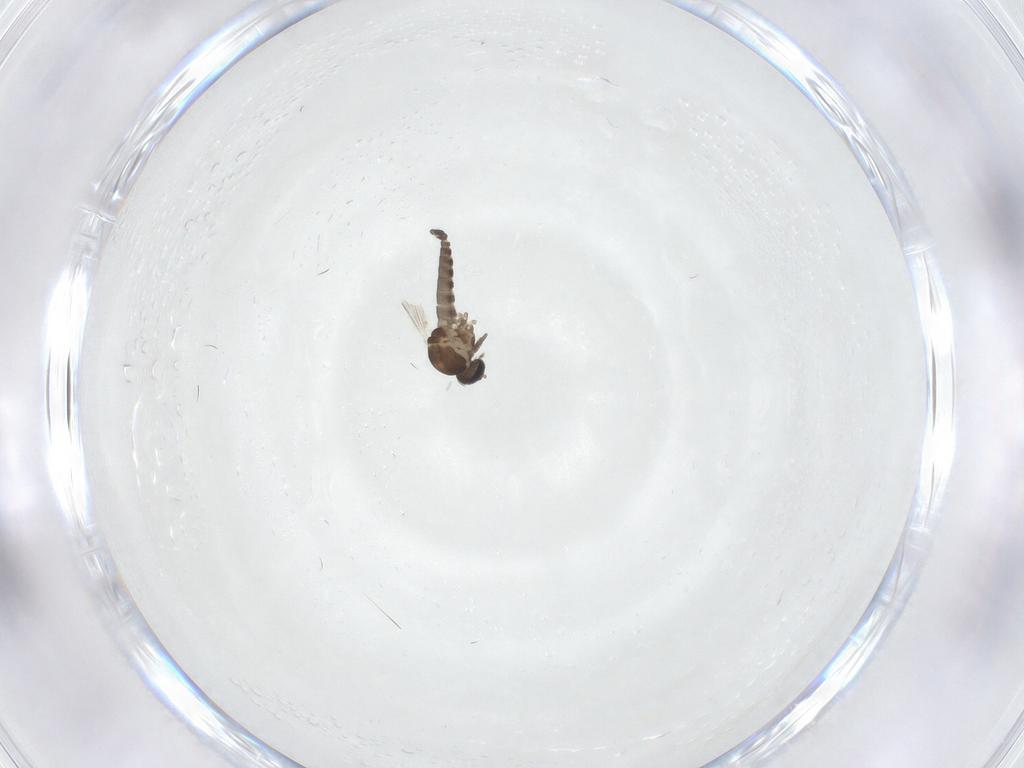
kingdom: Animalia
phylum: Arthropoda
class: Insecta
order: Diptera
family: Ceratopogonidae
